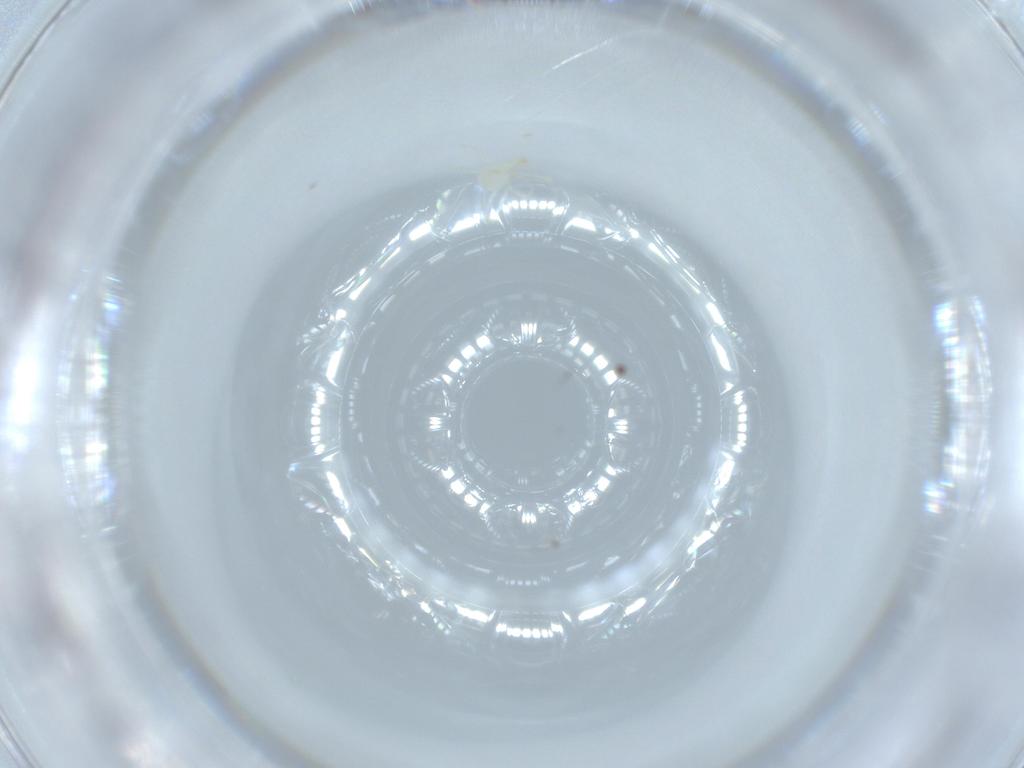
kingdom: Animalia
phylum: Arthropoda
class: Arachnida
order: Trombidiformes
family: Erythraeidae
